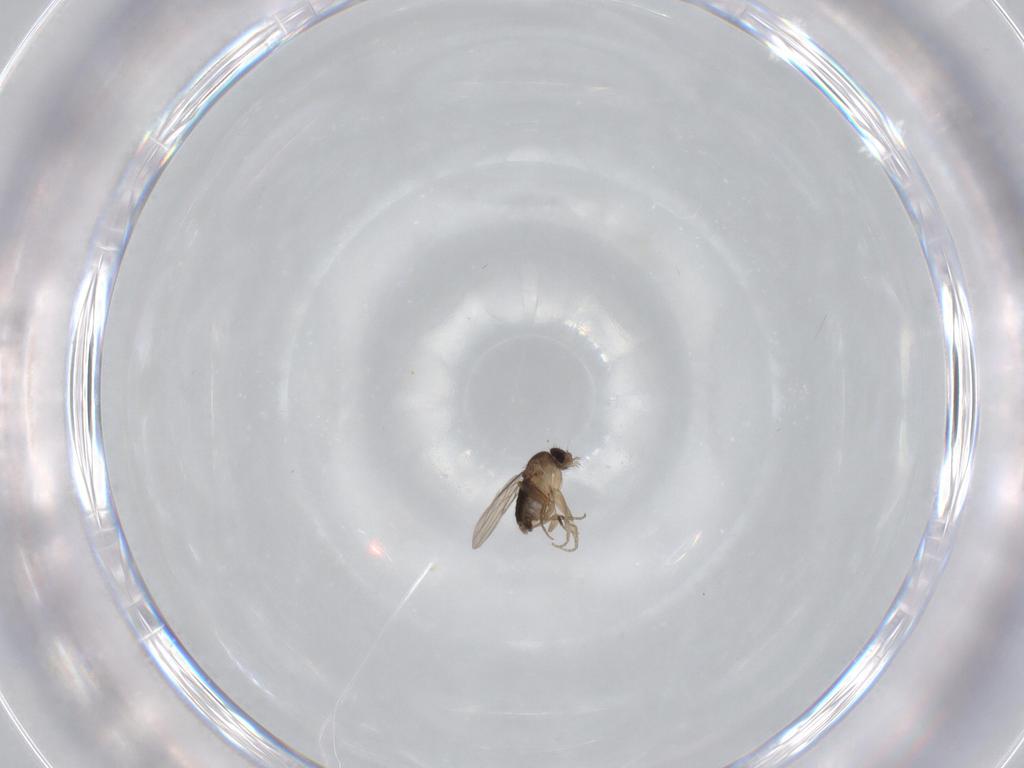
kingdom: Animalia
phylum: Arthropoda
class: Insecta
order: Diptera
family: Phoridae
